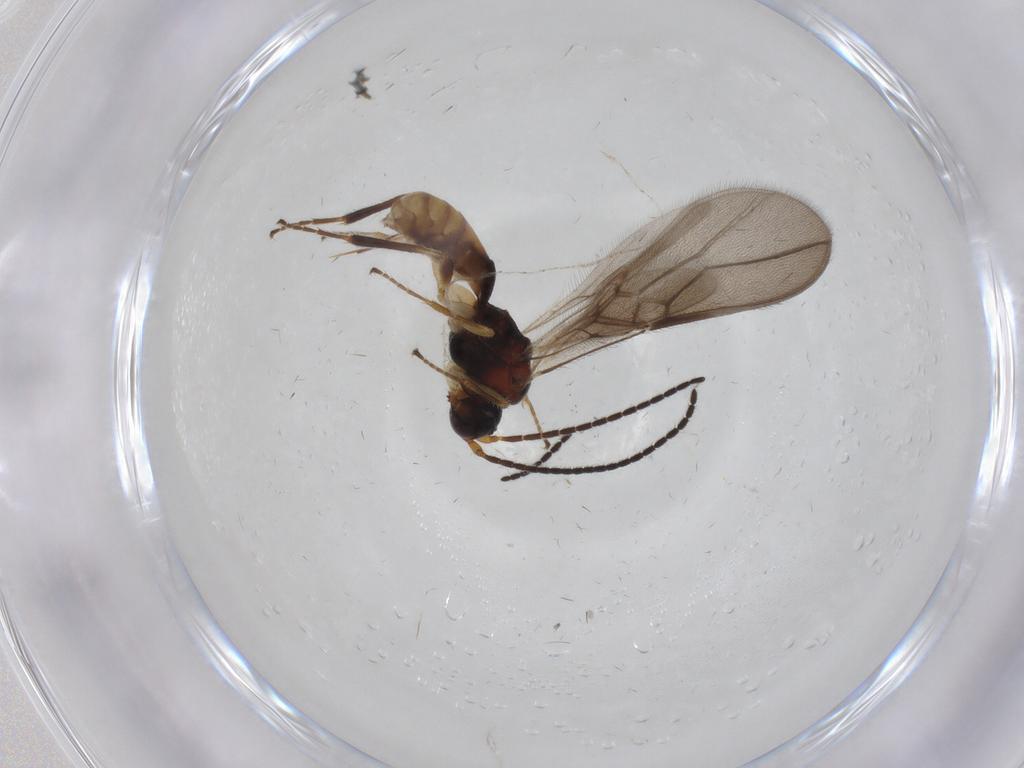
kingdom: Animalia
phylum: Arthropoda
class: Insecta
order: Hymenoptera
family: Braconidae
